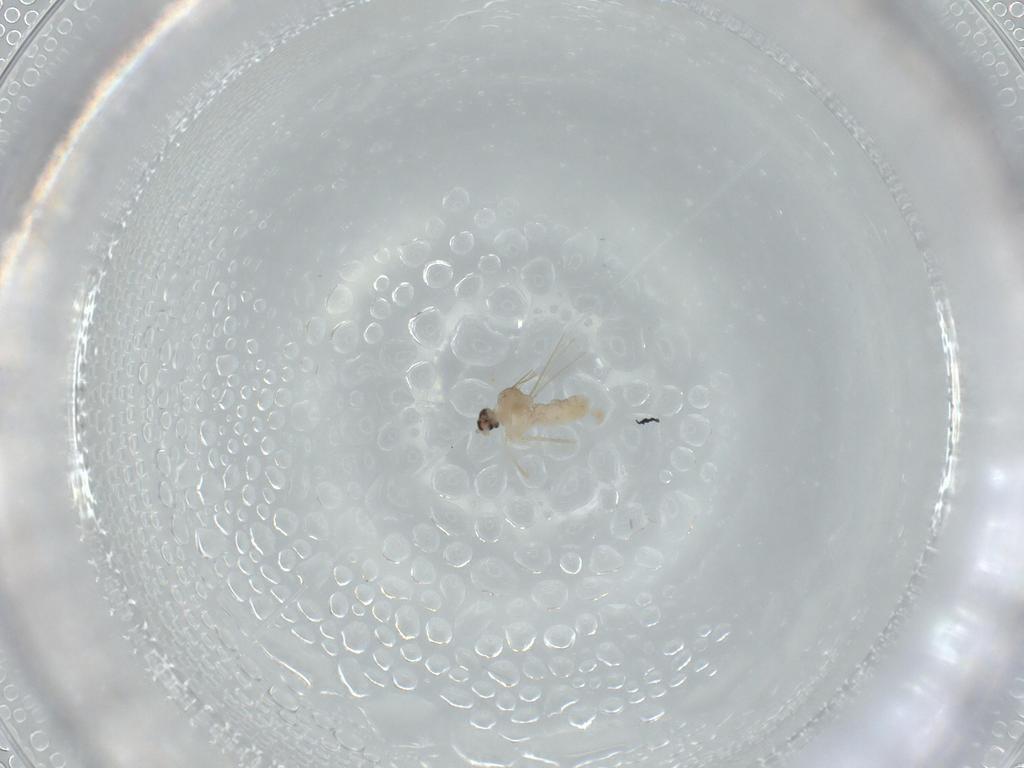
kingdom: Animalia
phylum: Arthropoda
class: Insecta
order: Diptera
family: Cecidomyiidae
